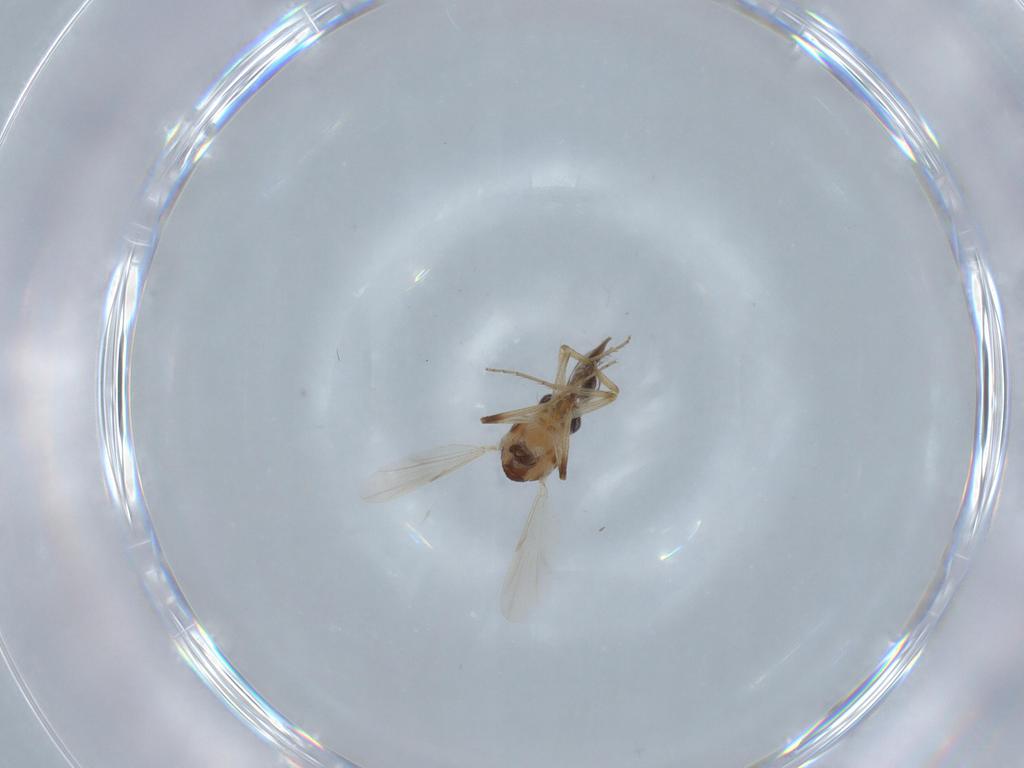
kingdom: Animalia
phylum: Arthropoda
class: Insecta
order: Diptera
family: Ceratopogonidae
